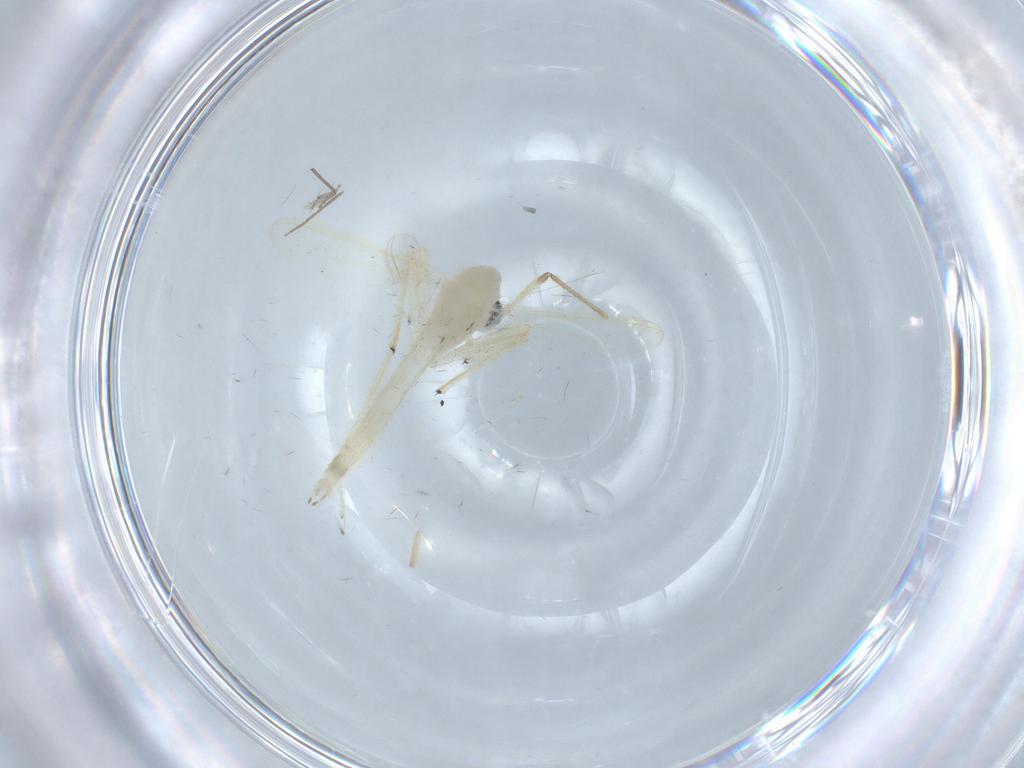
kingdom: Animalia
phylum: Arthropoda
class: Insecta
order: Diptera
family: Chironomidae
